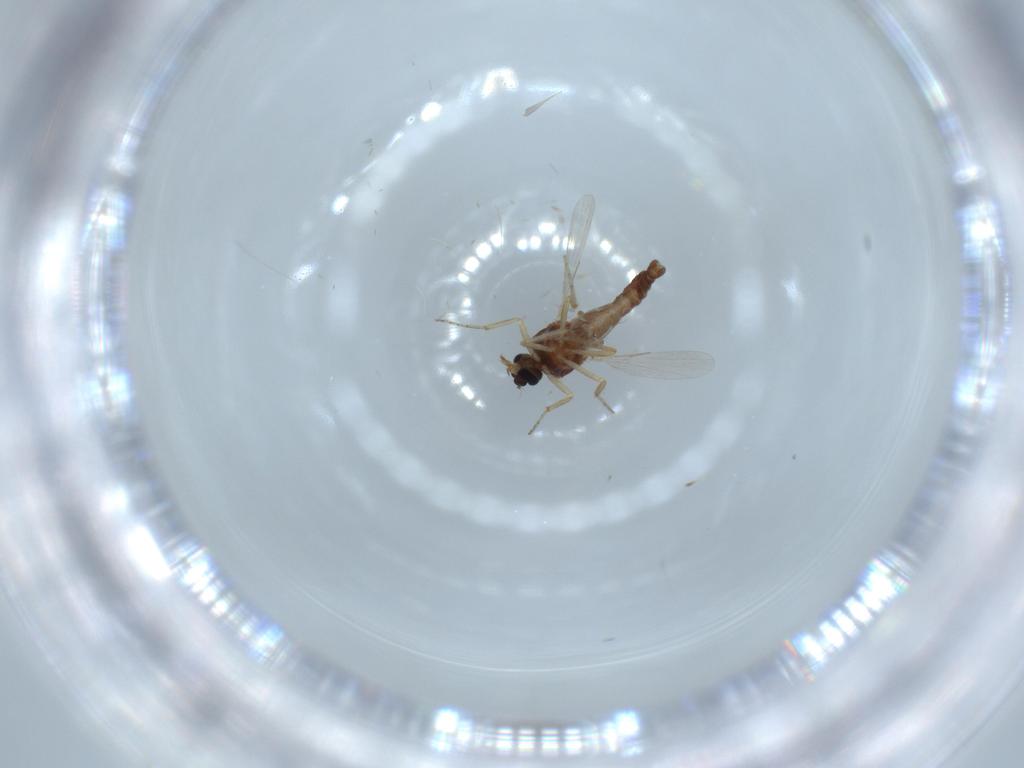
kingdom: Animalia
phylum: Arthropoda
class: Insecta
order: Diptera
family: Ceratopogonidae
